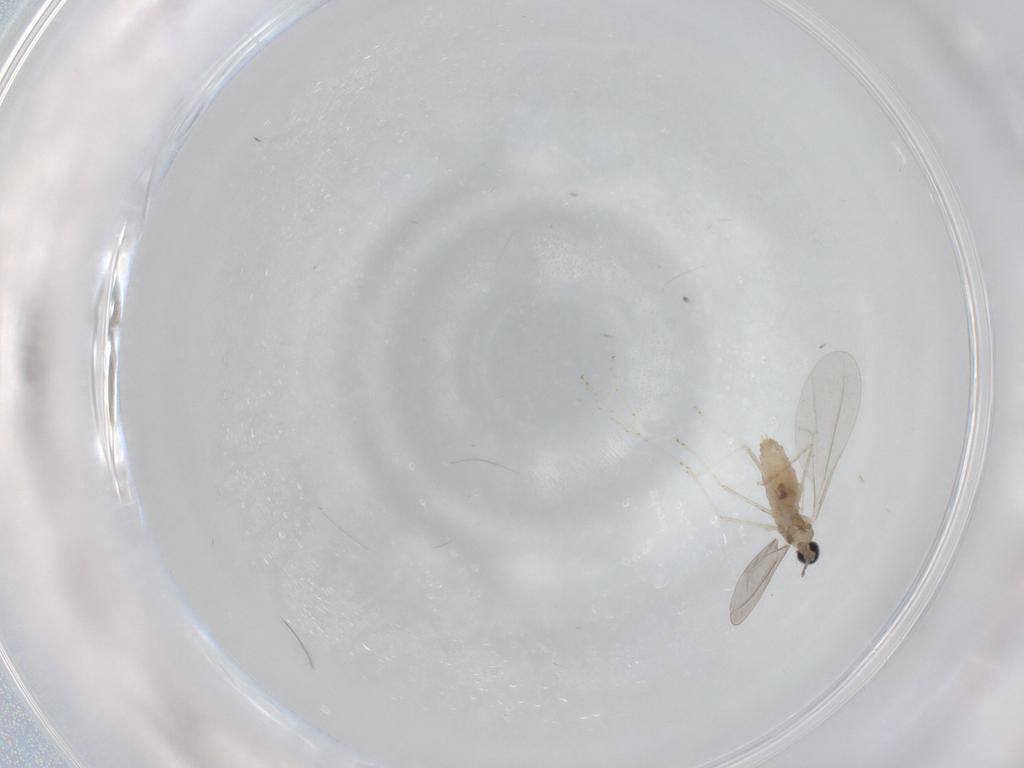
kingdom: Animalia
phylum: Arthropoda
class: Insecta
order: Diptera
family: Cecidomyiidae
